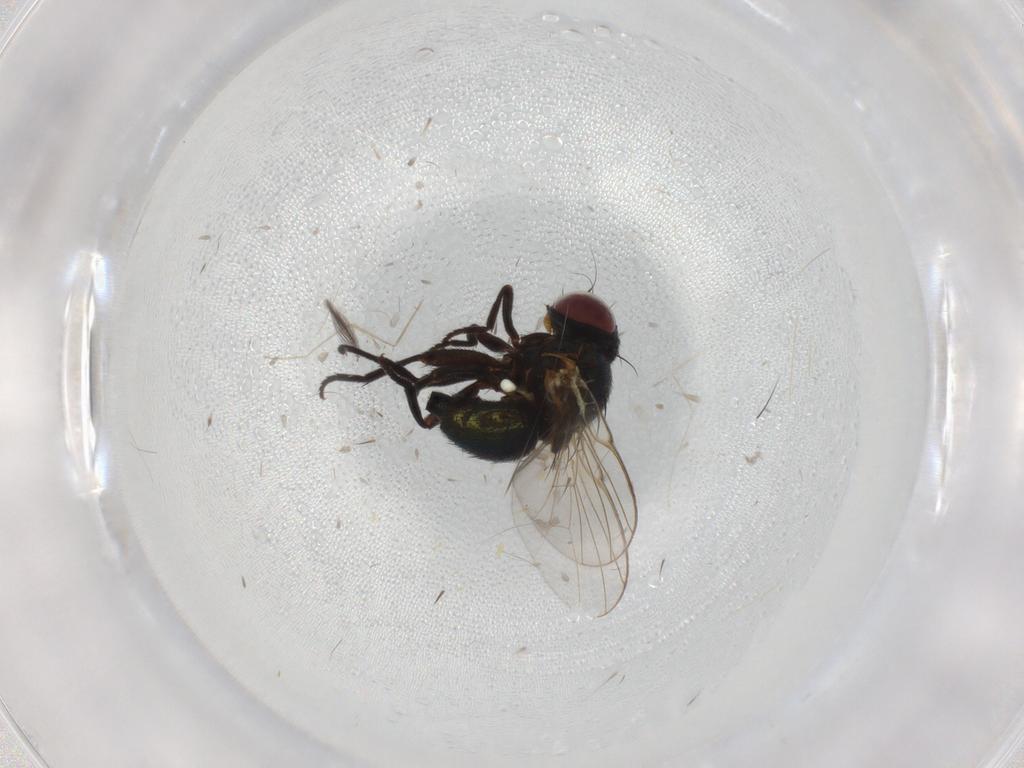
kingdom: Animalia
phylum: Arthropoda
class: Insecta
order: Diptera
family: Agromyzidae
